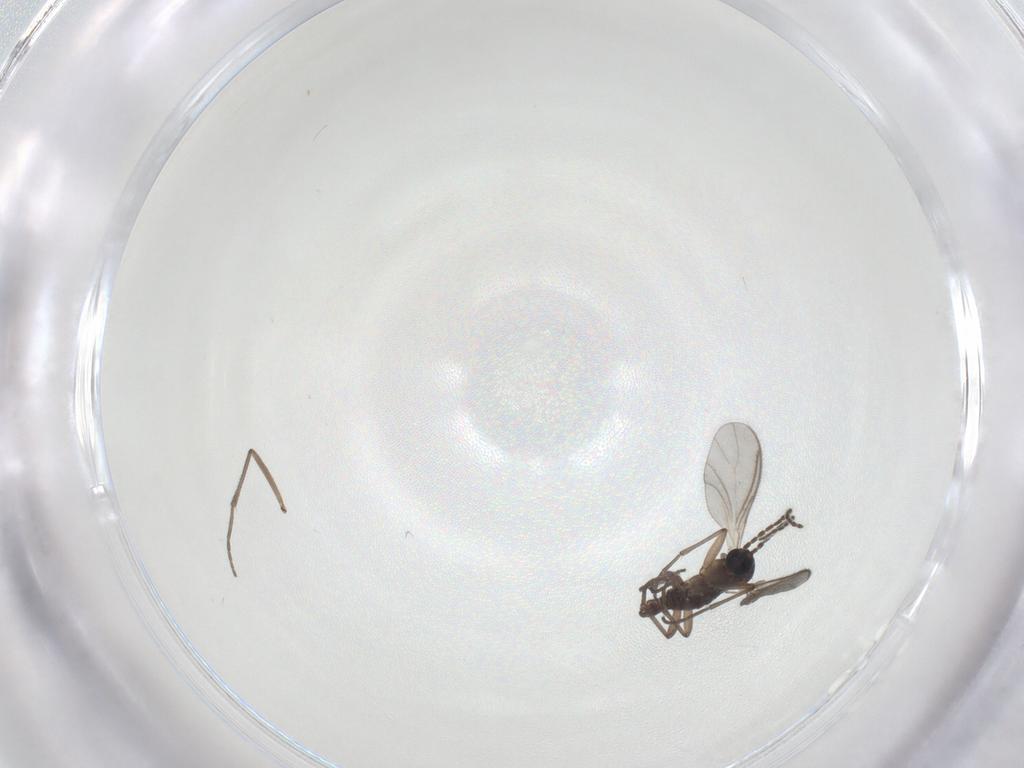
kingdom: Animalia
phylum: Arthropoda
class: Insecta
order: Diptera
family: Sciaridae
